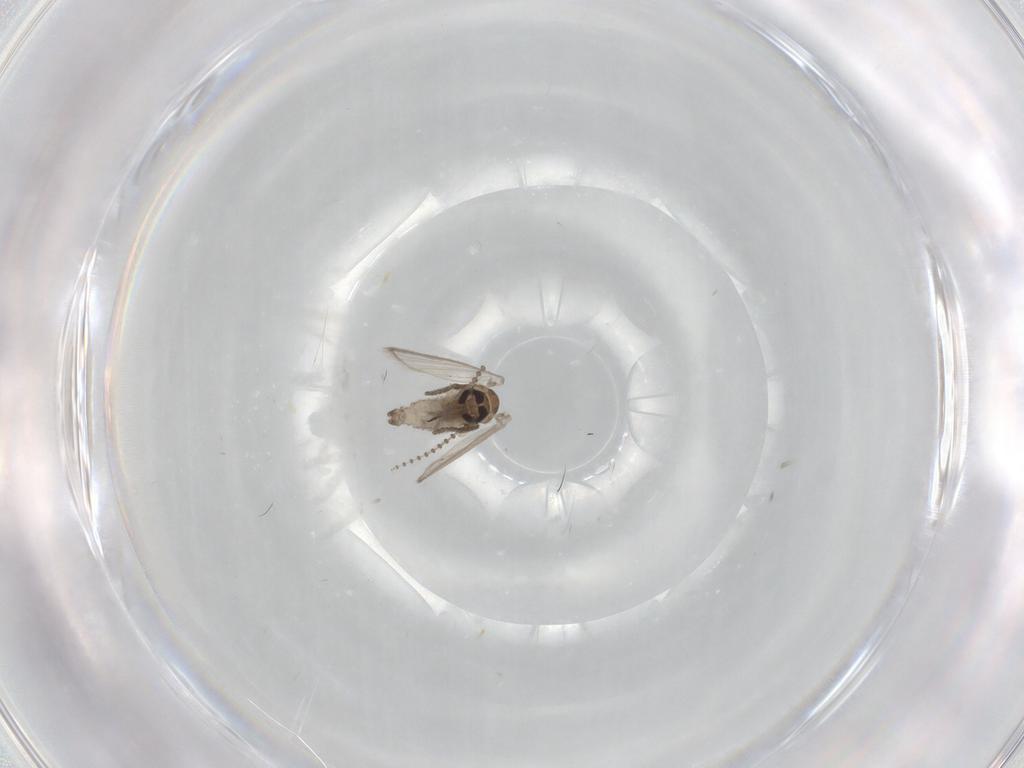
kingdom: Animalia
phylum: Arthropoda
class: Insecta
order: Diptera
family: Psychodidae
